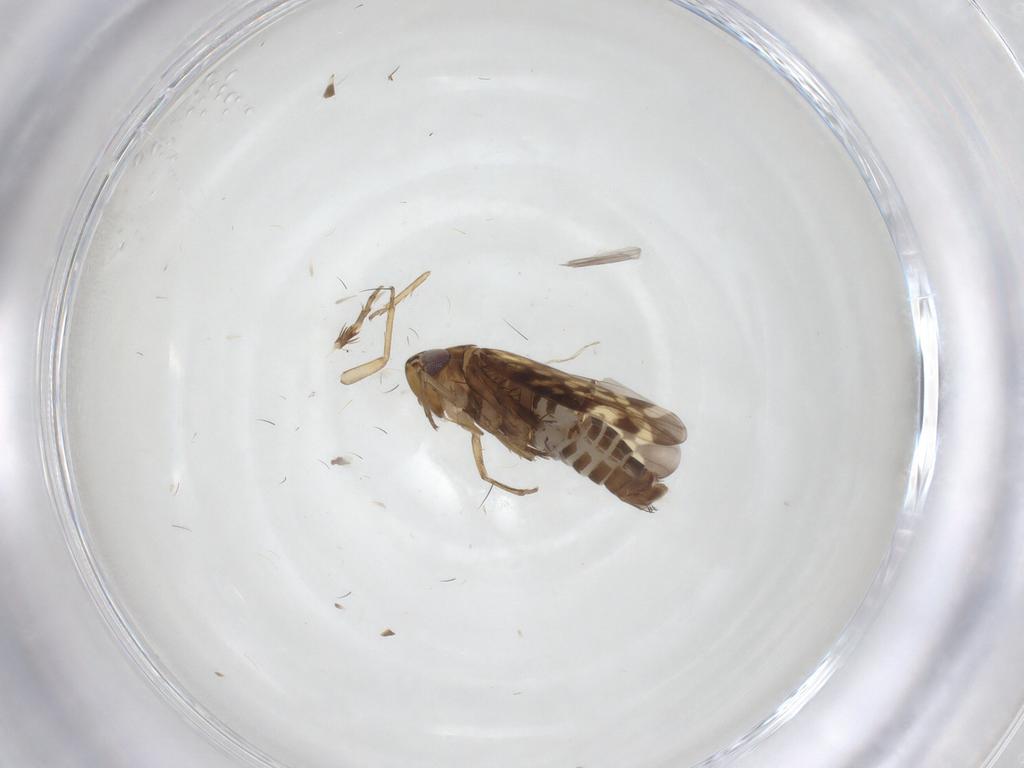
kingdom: Animalia
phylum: Arthropoda
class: Insecta
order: Hemiptera
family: Cicadellidae
